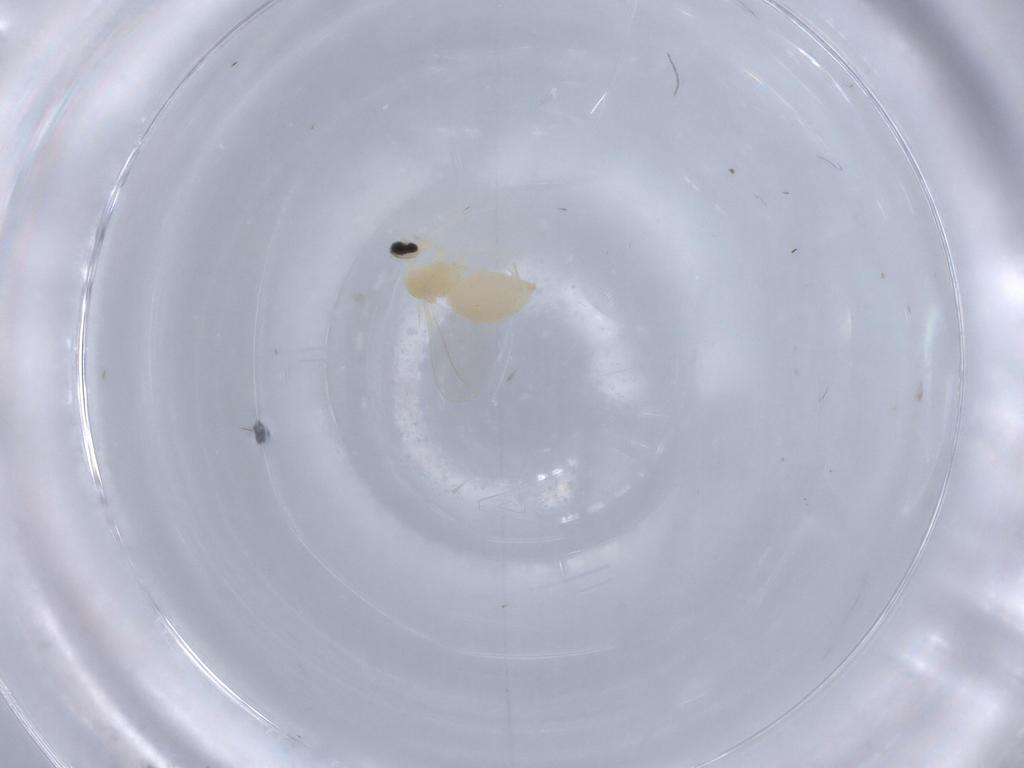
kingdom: Animalia
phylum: Arthropoda
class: Insecta
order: Diptera
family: Cecidomyiidae
